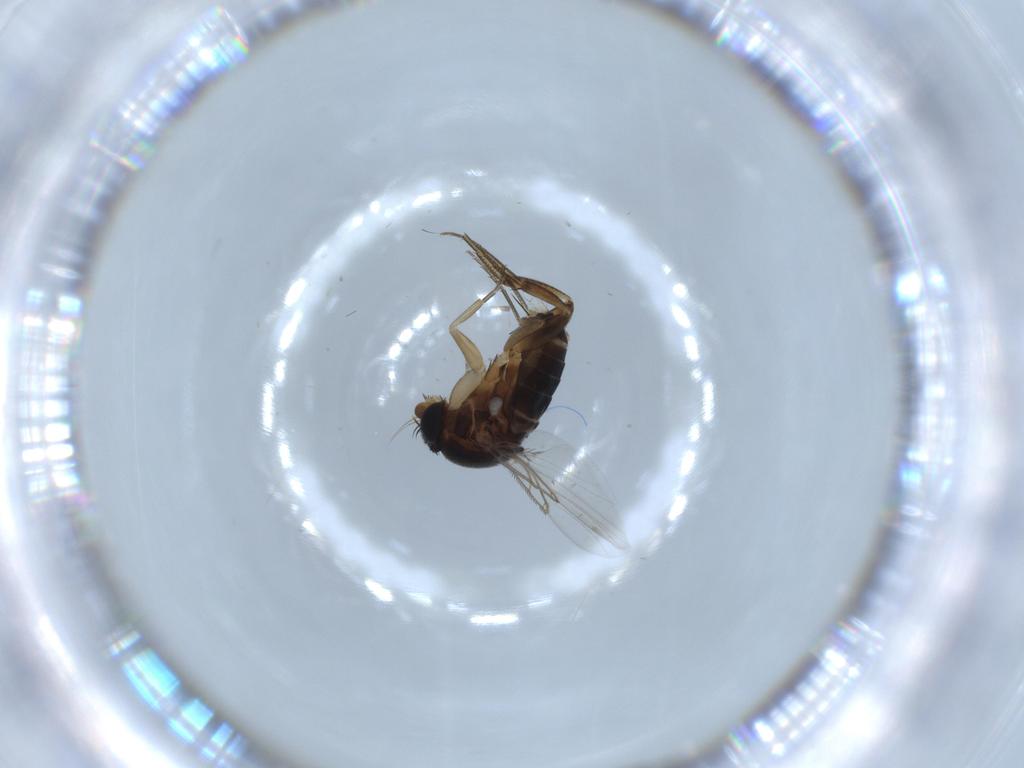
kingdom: Animalia
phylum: Arthropoda
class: Insecta
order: Diptera
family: Phoridae
